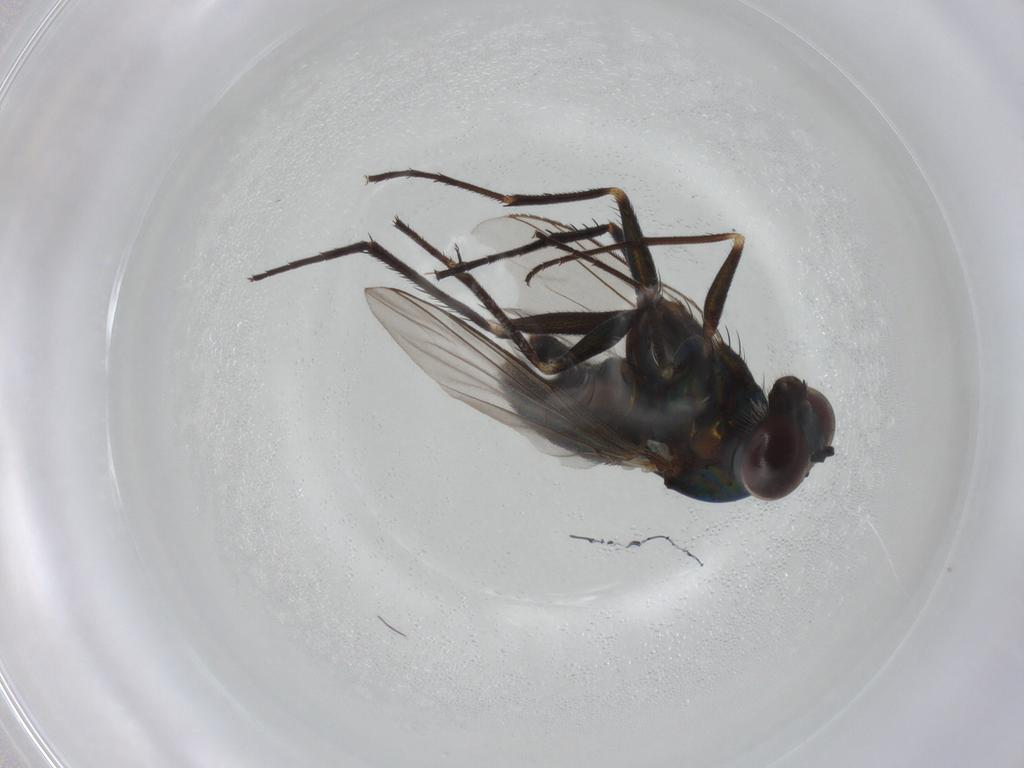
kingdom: Animalia
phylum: Arthropoda
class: Insecta
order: Diptera
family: Dolichopodidae
